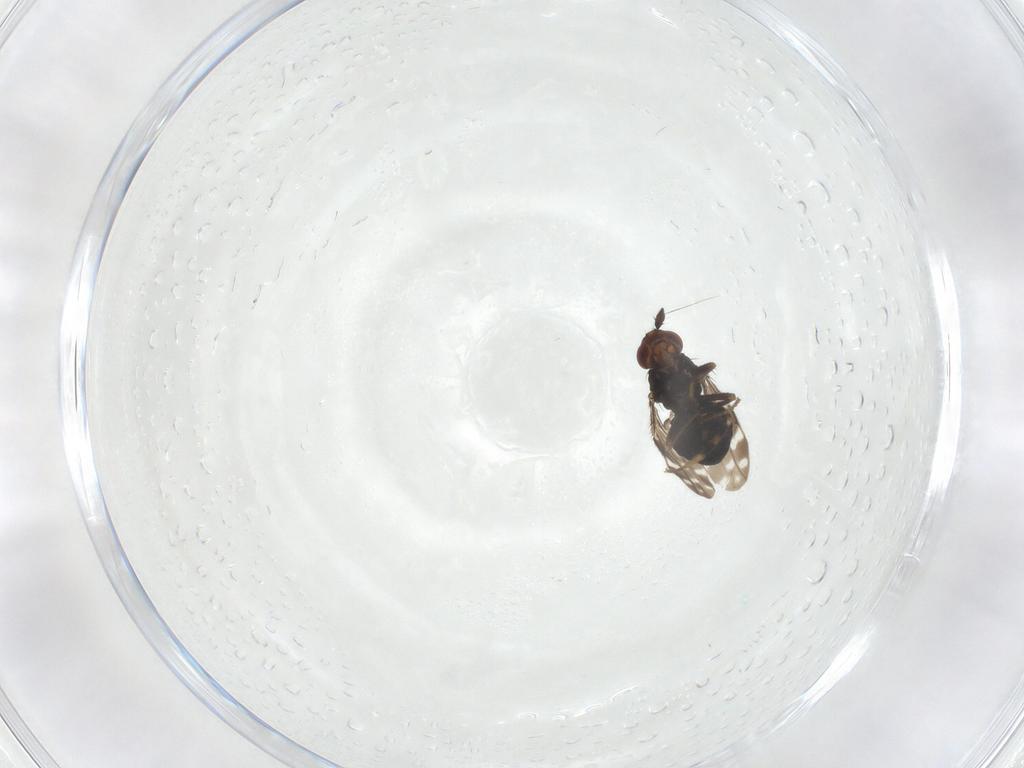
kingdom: Animalia
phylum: Arthropoda
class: Insecta
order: Diptera
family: Sphaeroceridae
